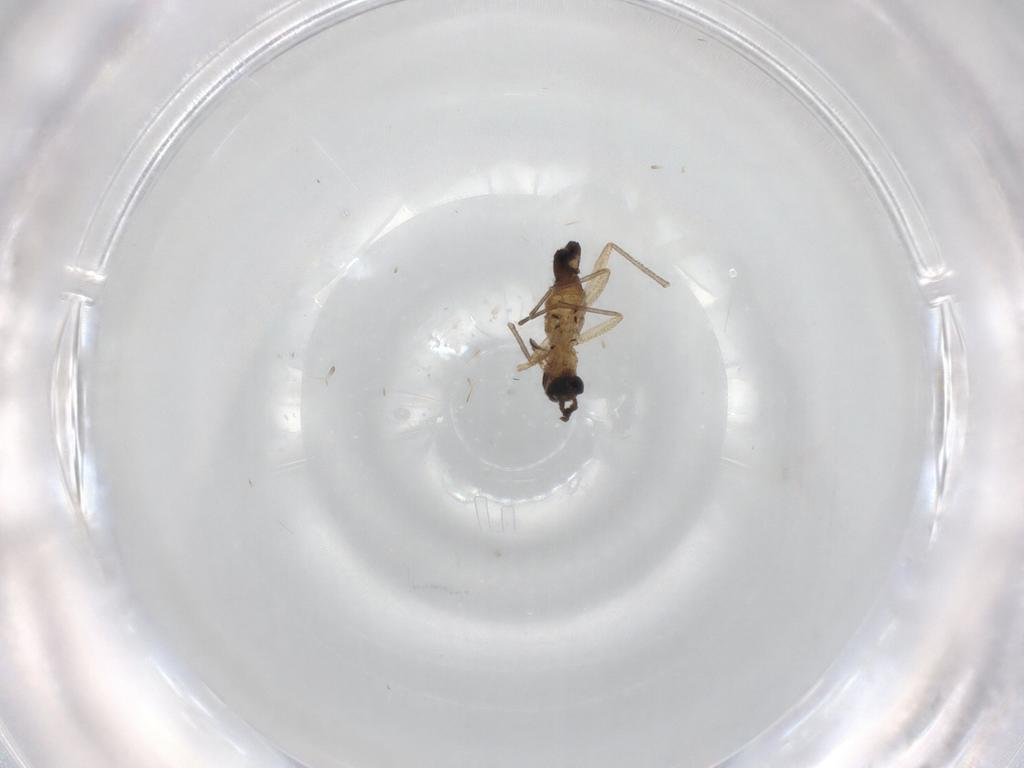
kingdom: Animalia
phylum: Arthropoda
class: Insecta
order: Diptera
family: Sciaridae
